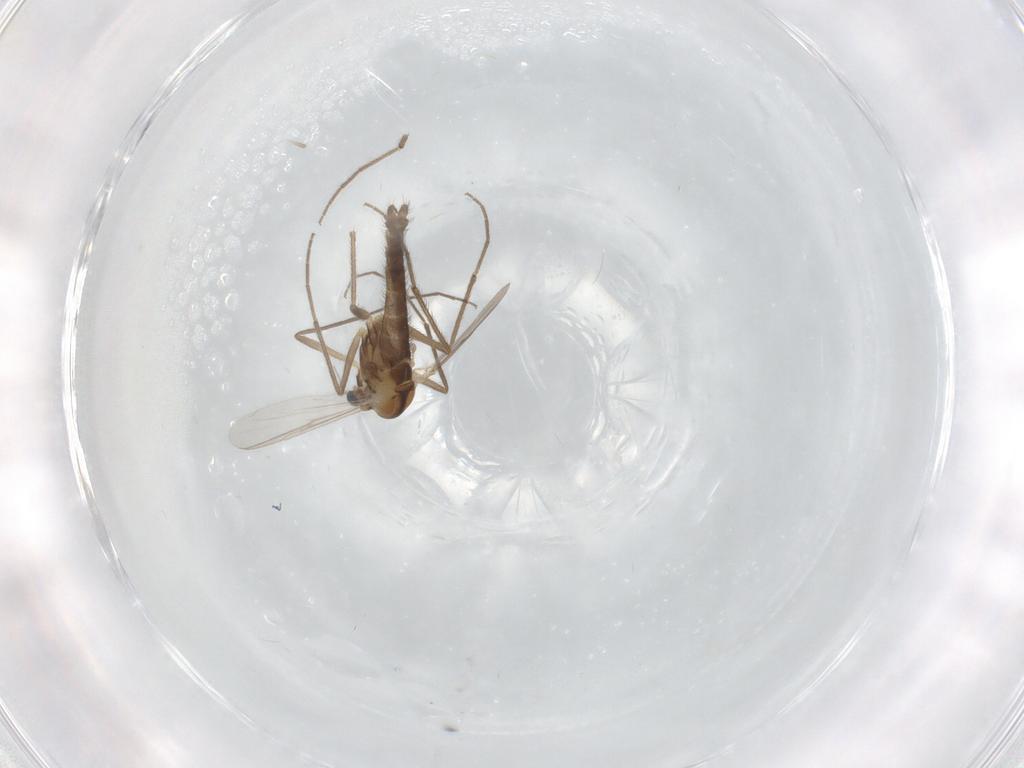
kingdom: Animalia
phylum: Arthropoda
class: Insecta
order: Diptera
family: Chironomidae
